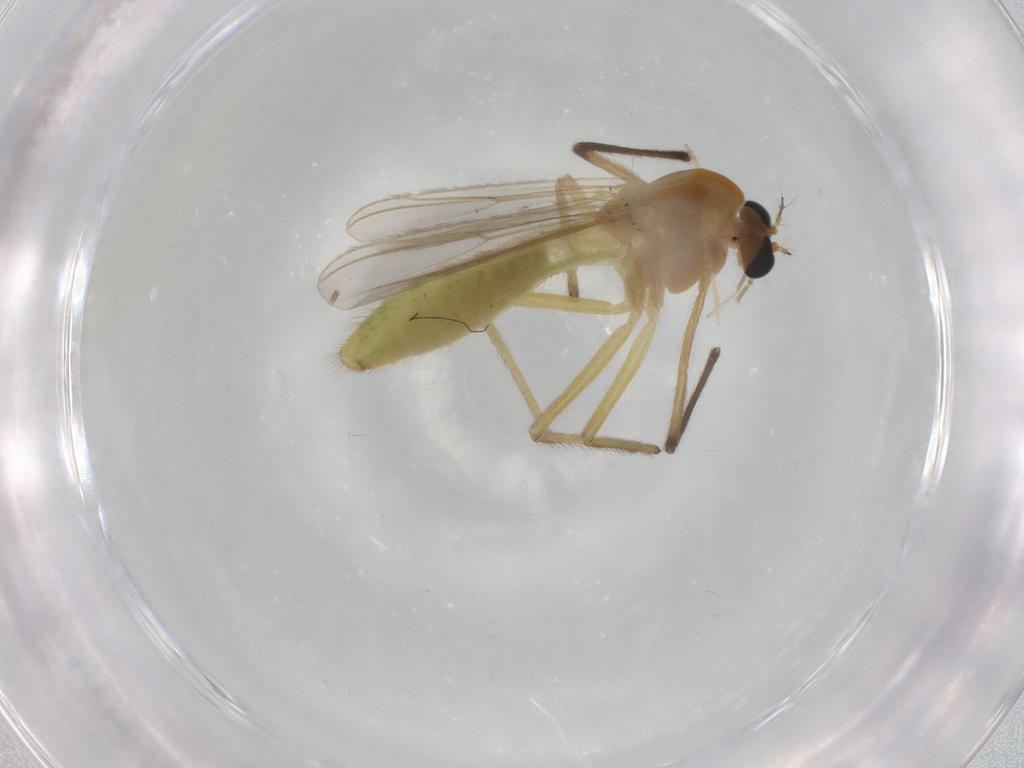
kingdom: Animalia
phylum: Arthropoda
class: Insecta
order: Diptera
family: Chironomidae
